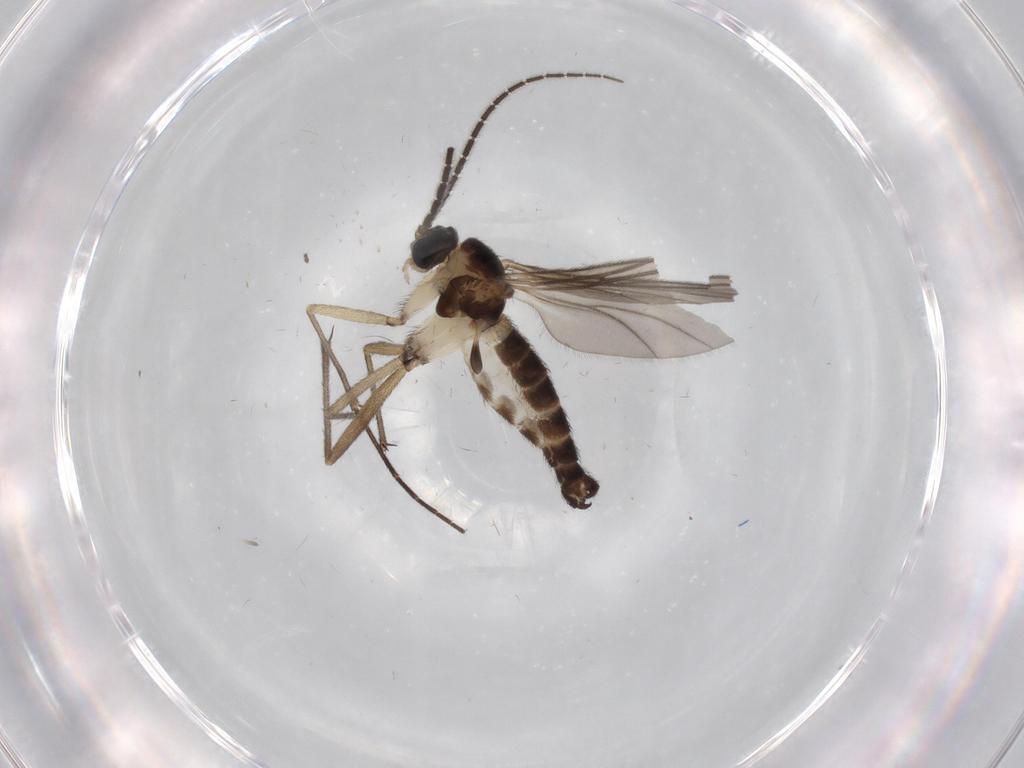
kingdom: Animalia
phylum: Arthropoda
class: Insecta
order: Diptera
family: Sciaridae
